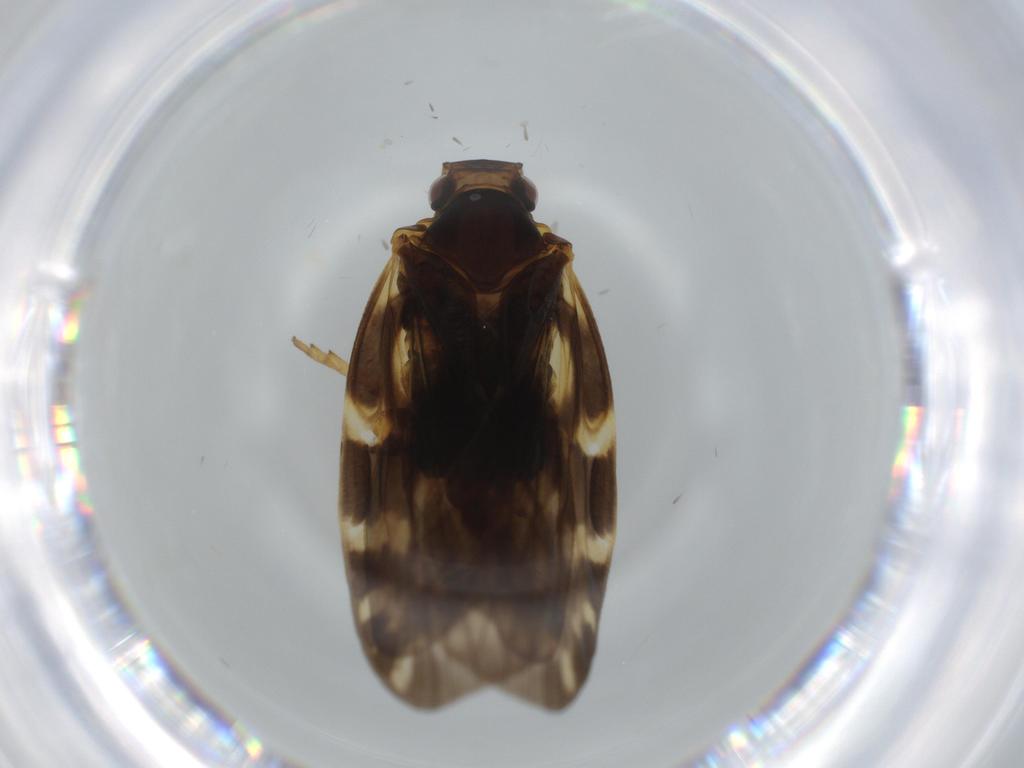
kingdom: Animalia
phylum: Arthropoda
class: Insecta
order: Hemiptera
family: Cixiidae
